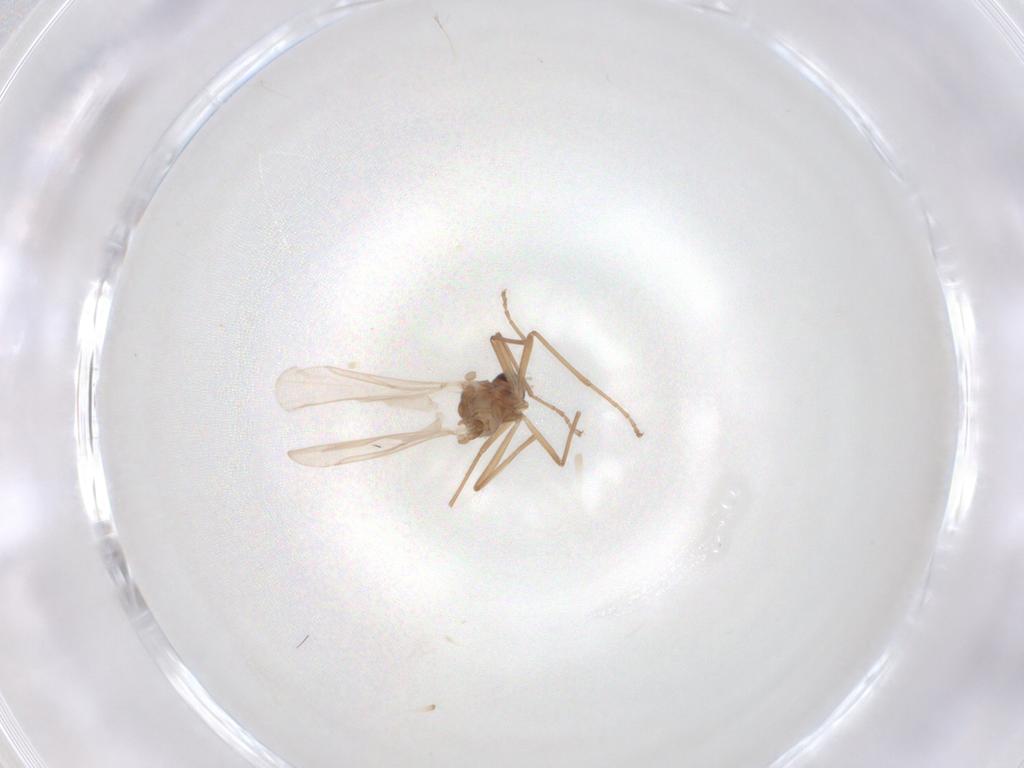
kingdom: Animalia
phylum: Arthropoda
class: Insecta
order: Diptera
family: Sciaridae
